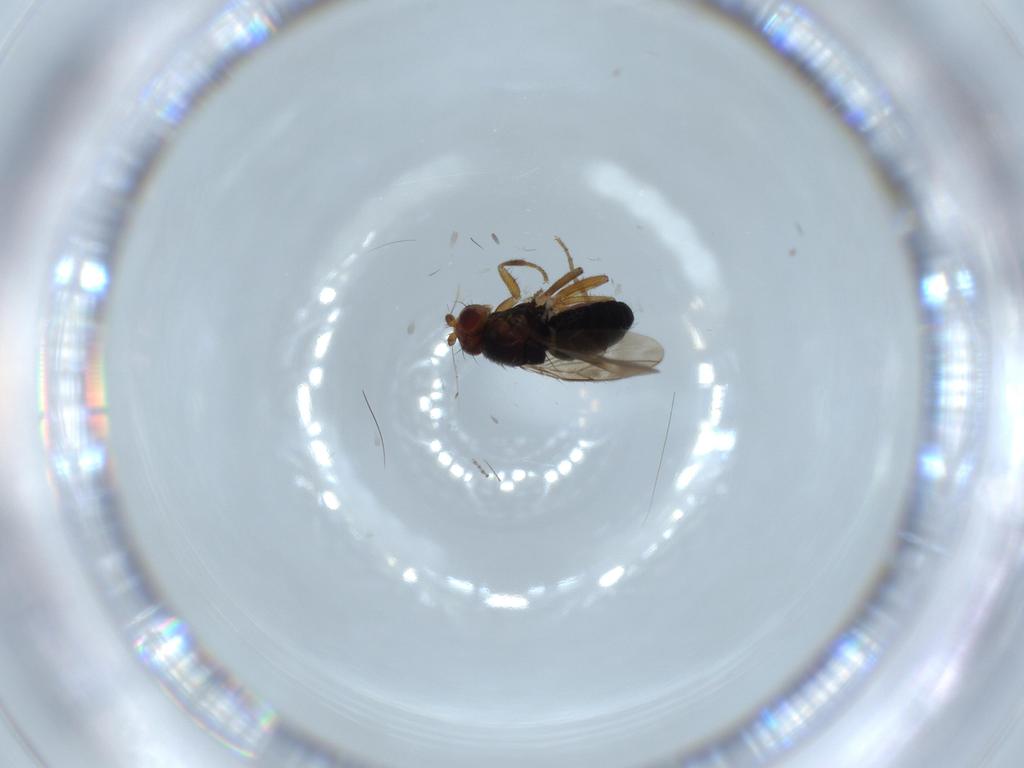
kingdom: Animalia
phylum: Arthropoda
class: Insecta
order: Diptera
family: Sphaeroceridae
